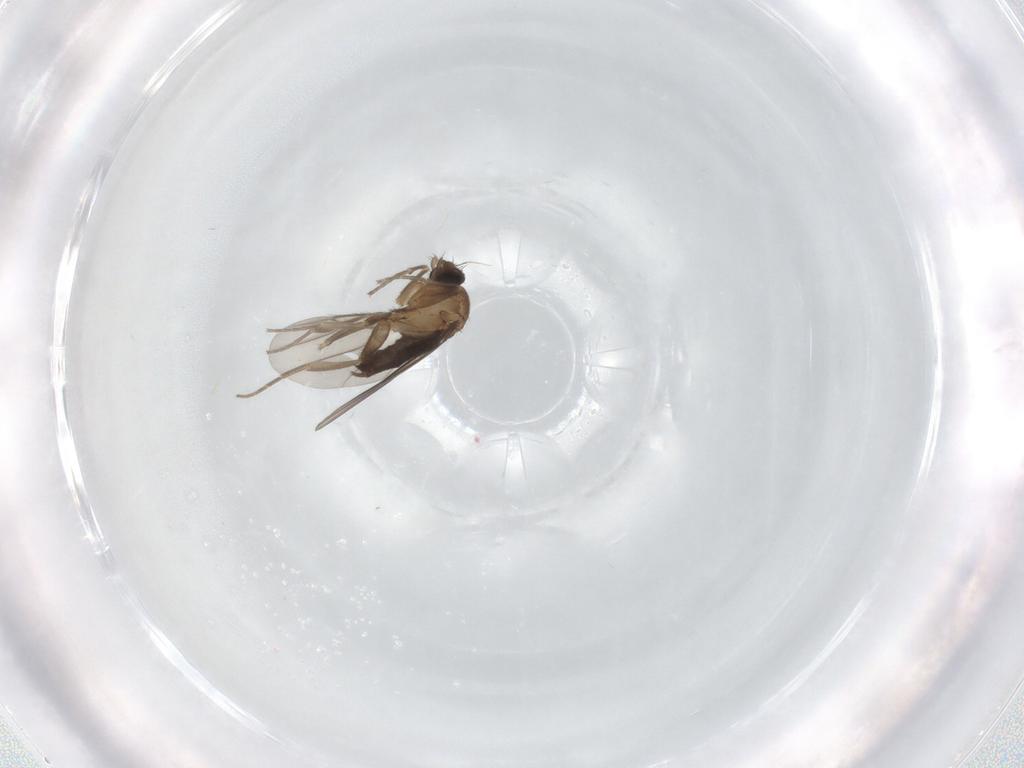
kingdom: Animalia
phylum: Arthropoda
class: Insecta
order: Diptera
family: Phoridae
